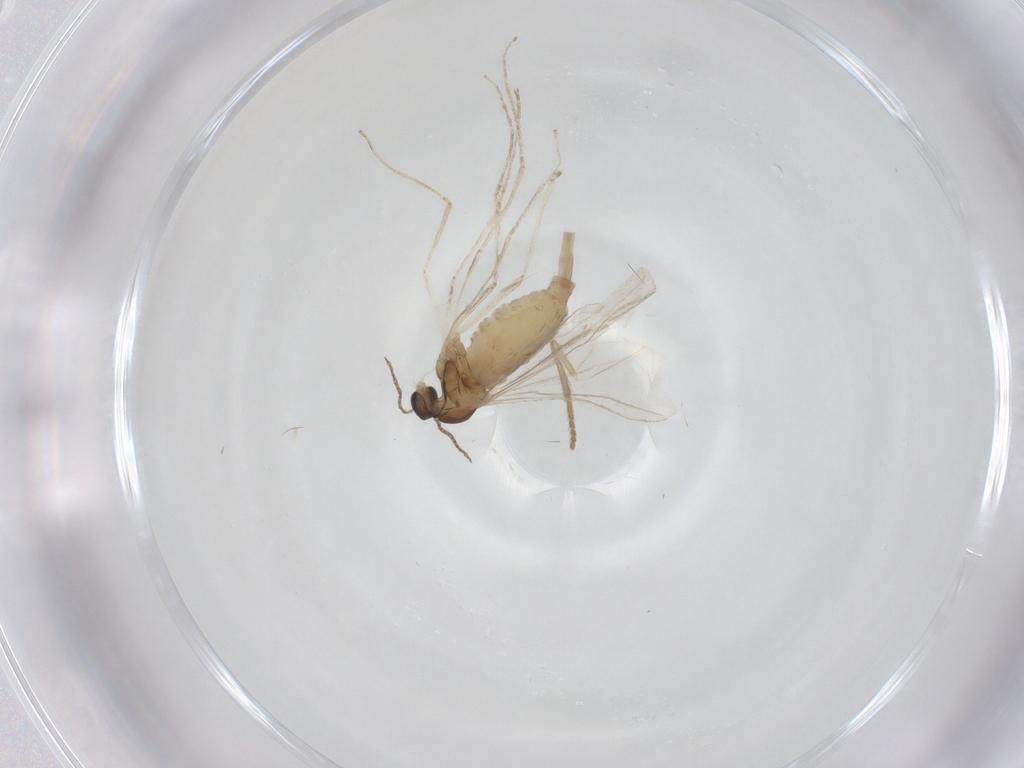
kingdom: Animalia
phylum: Arthropoda
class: Insecta
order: Diptera
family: Cecidomyiidae
